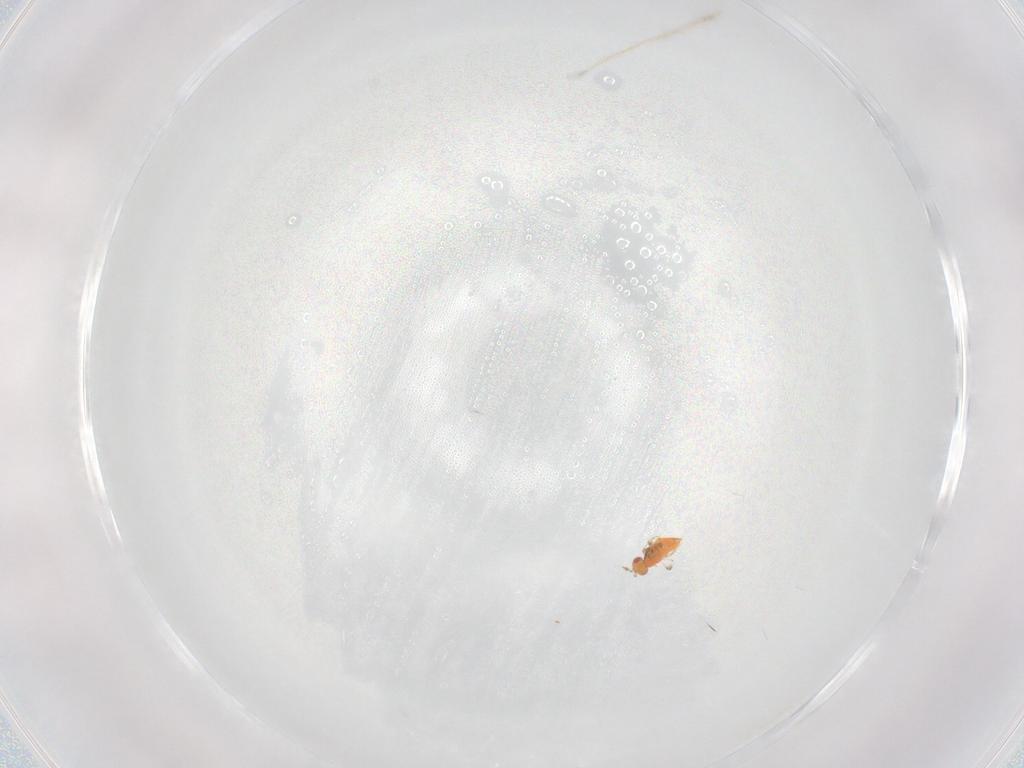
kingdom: Animalia
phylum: Arthropoda
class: Insecta
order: Hymenoptera
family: Trichogrammatidae
